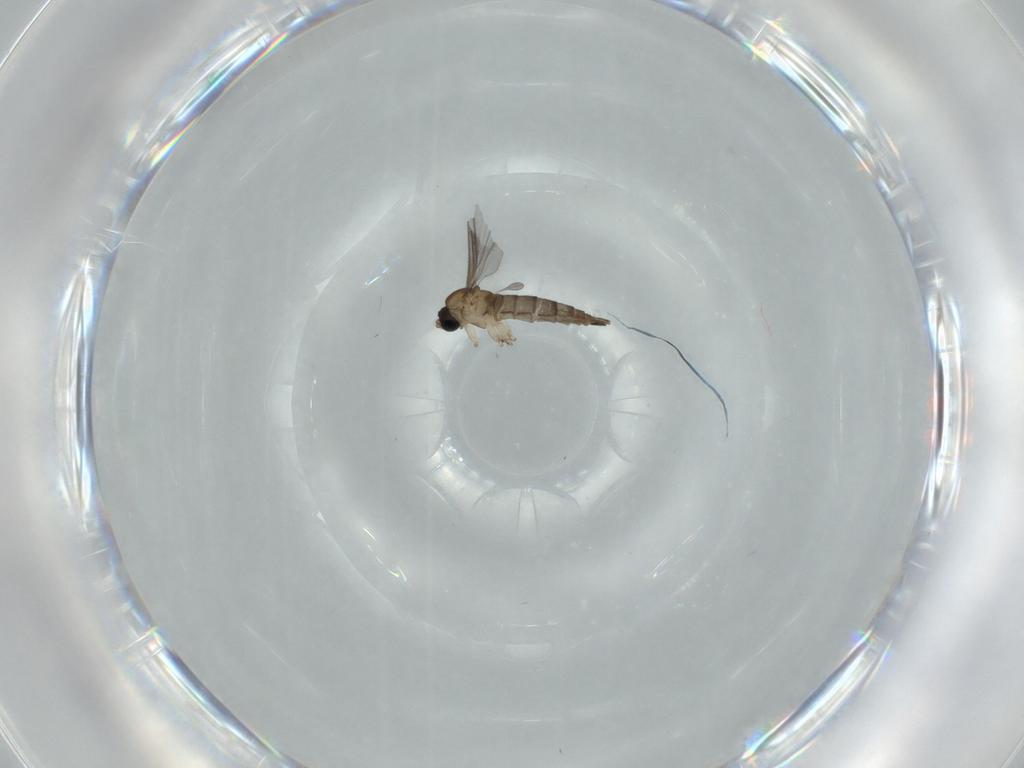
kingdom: Animalia
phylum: Arthropoda
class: Insecta
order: Diptera
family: Sciaridae
